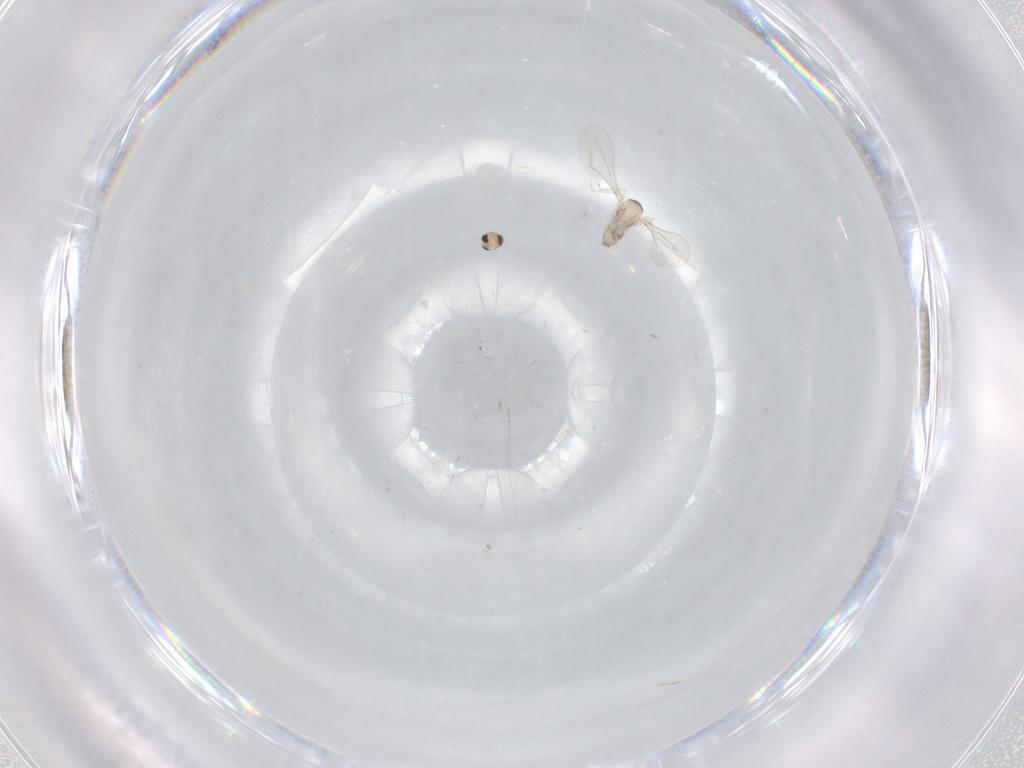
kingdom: Animalia
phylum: Arthropoda
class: Insecta
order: Diptera
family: Cecidomyiidae
